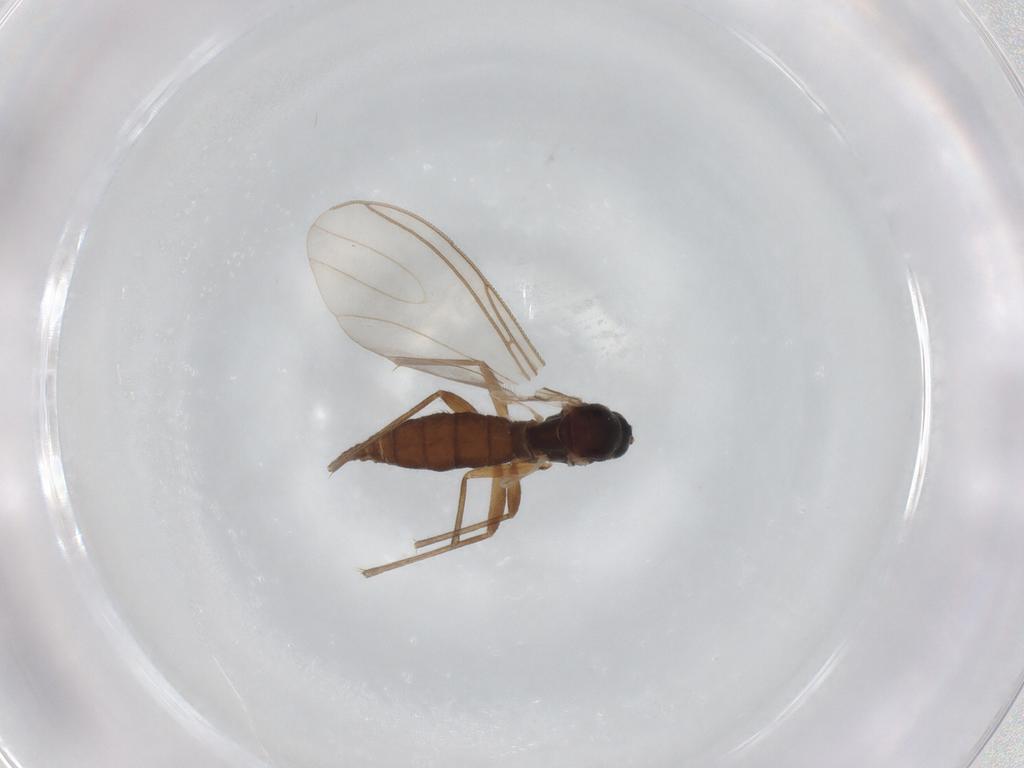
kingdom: Animalia
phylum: Arthropoda
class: Insecta
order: Diptera
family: Sciaridae
